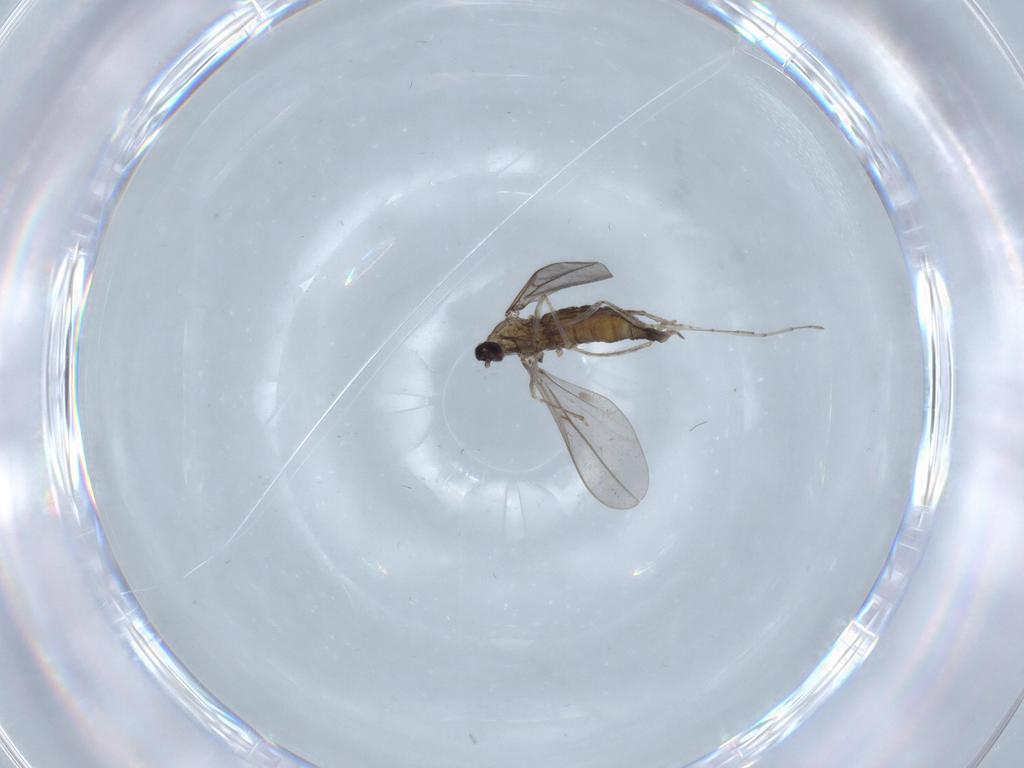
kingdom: Animalia
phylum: Arthropoda
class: Insecta
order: Diptera
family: Cecidomyiidae
